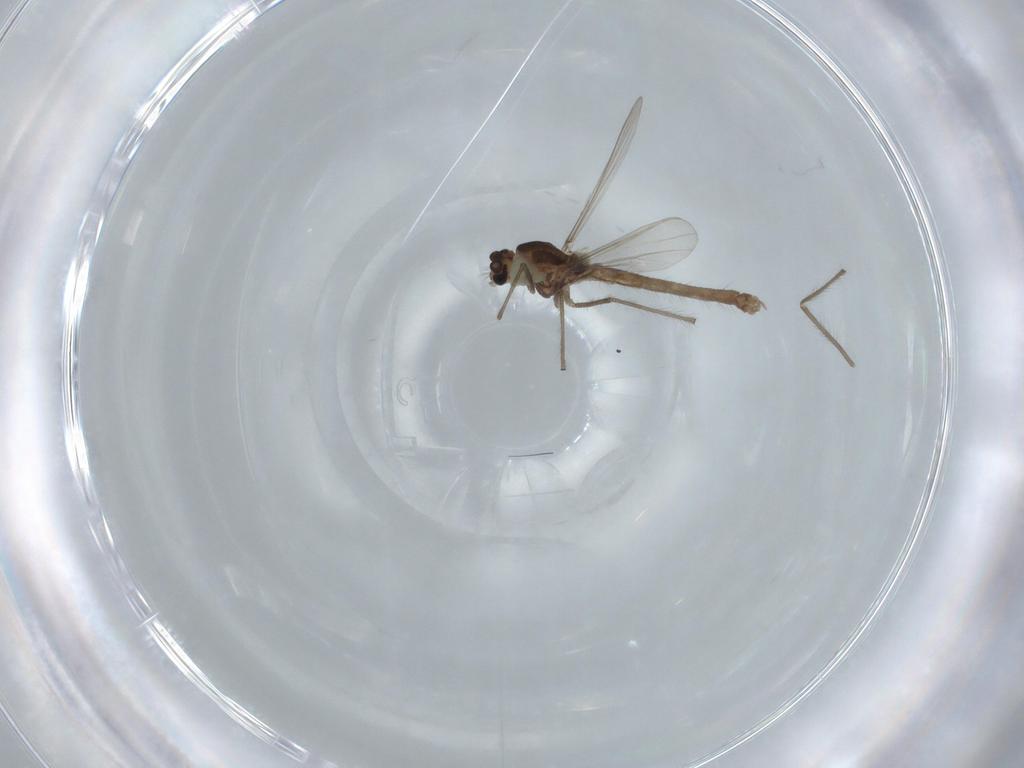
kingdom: Animalia
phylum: Arthropoda
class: Insecta
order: Diptera
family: Chironomidae
